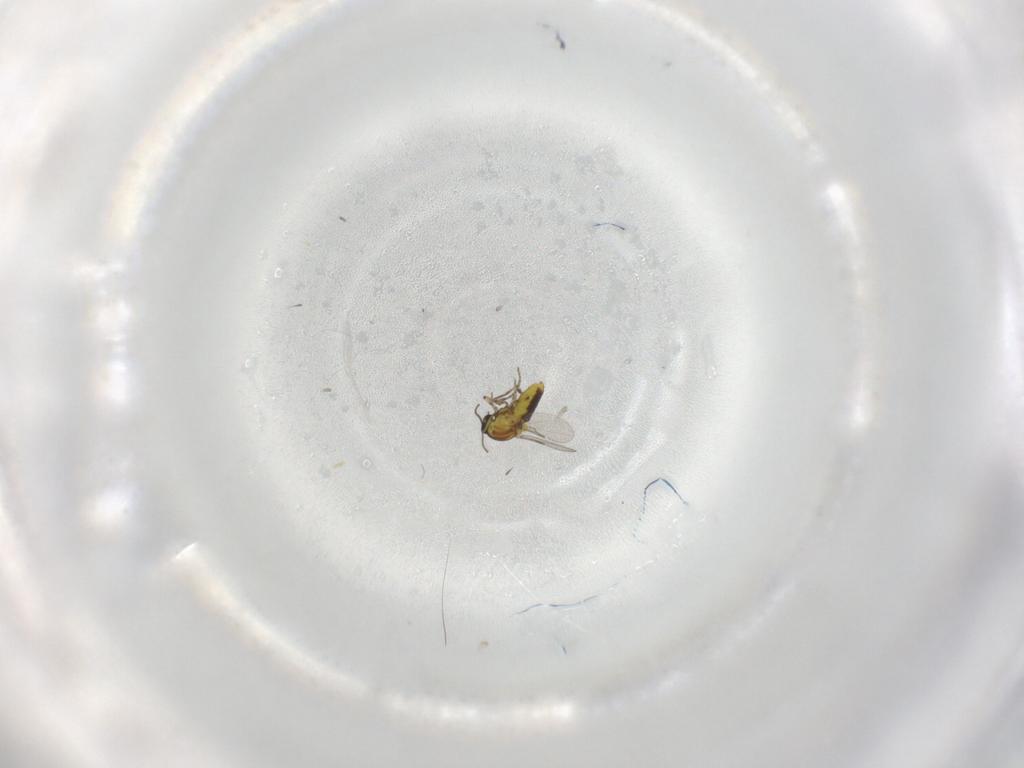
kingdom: Animalia
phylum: Arthropoda
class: Insecta
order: Diptera
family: Ceratopogonidae
